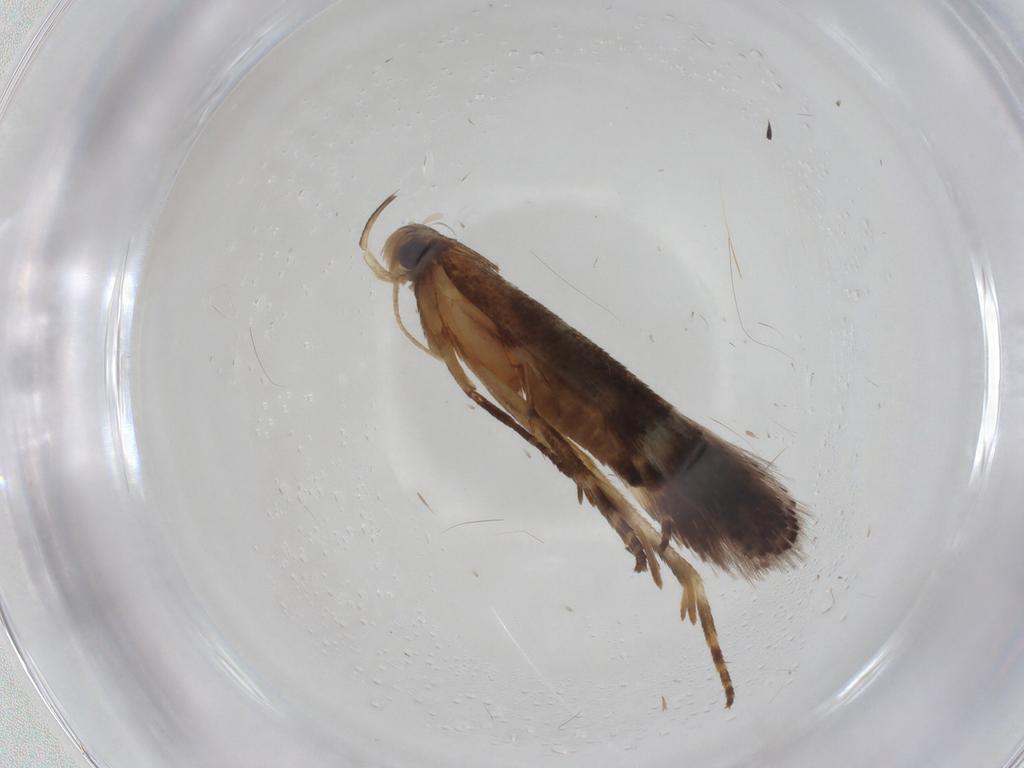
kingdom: Animalia
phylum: Arthropoda
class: Insecta
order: Lepidoptera
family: Gelechiidae
